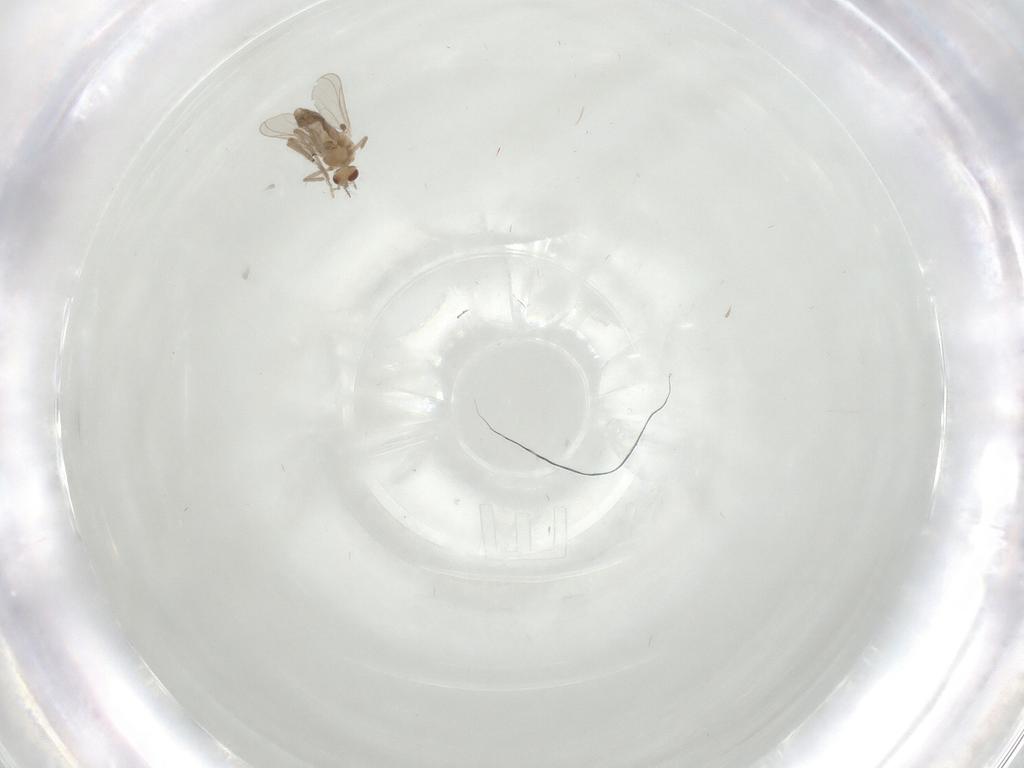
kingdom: Animalia
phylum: Arthropoda
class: Insecta
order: Diptera
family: Chironomidae
